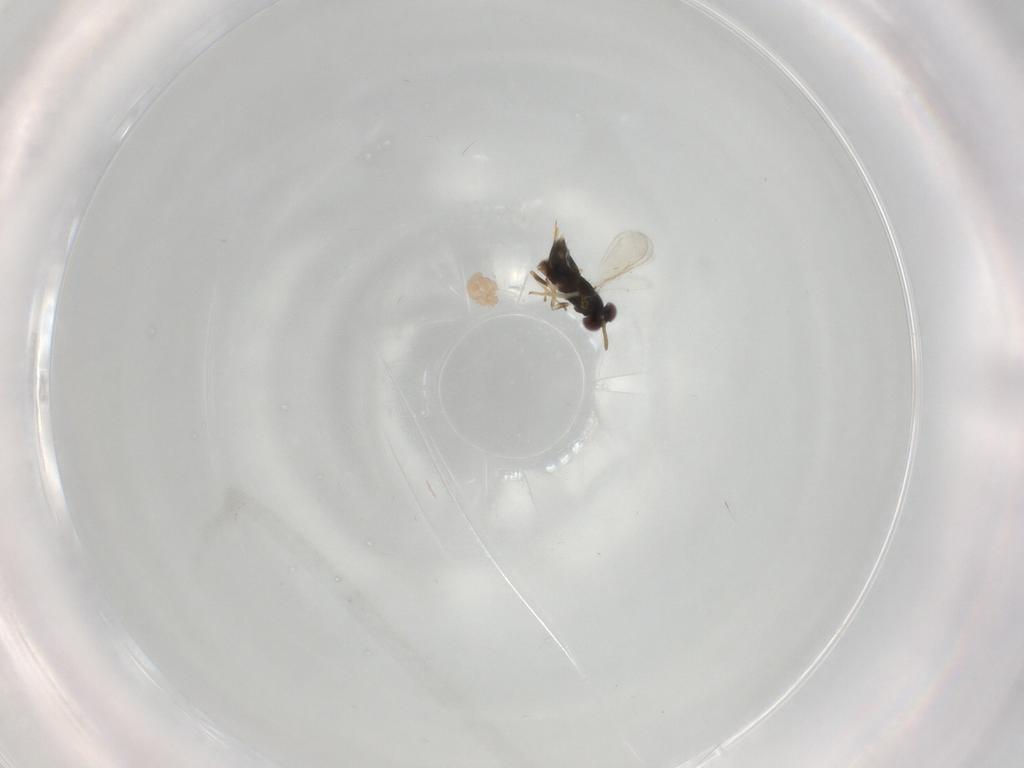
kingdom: Animalia
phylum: Arthropoda
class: Insecta
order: Hymenoptera
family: Aphelinidae
